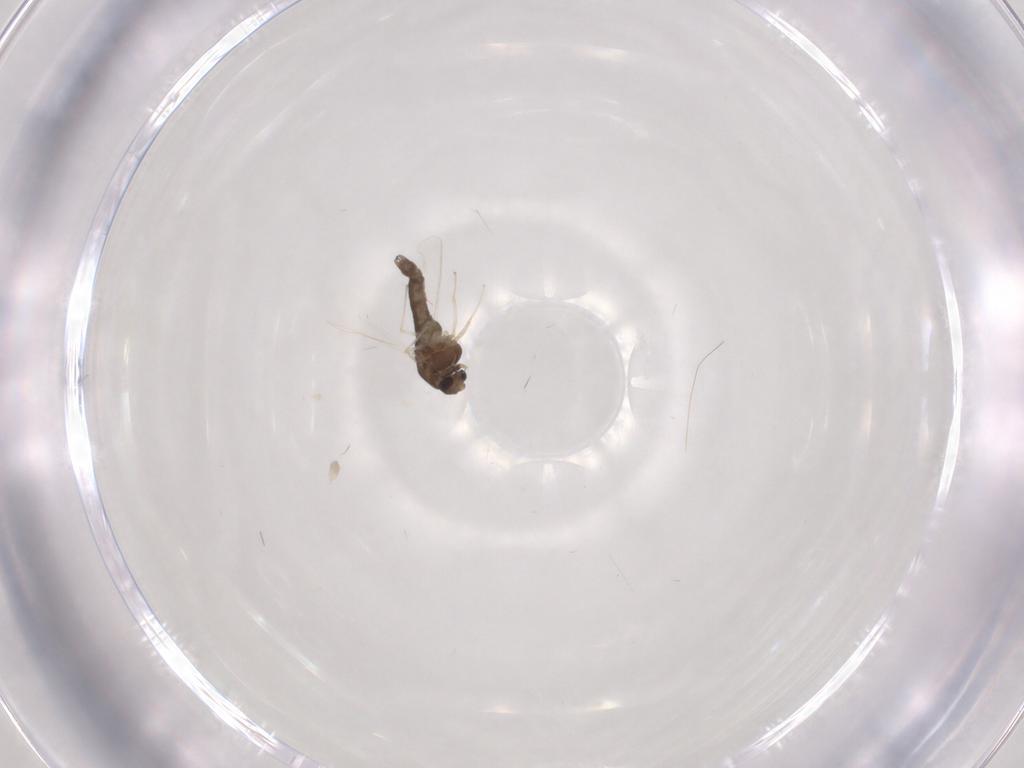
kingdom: Animalia
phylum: Arthropoda
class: Insecta
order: Diptera
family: Chironomidae
